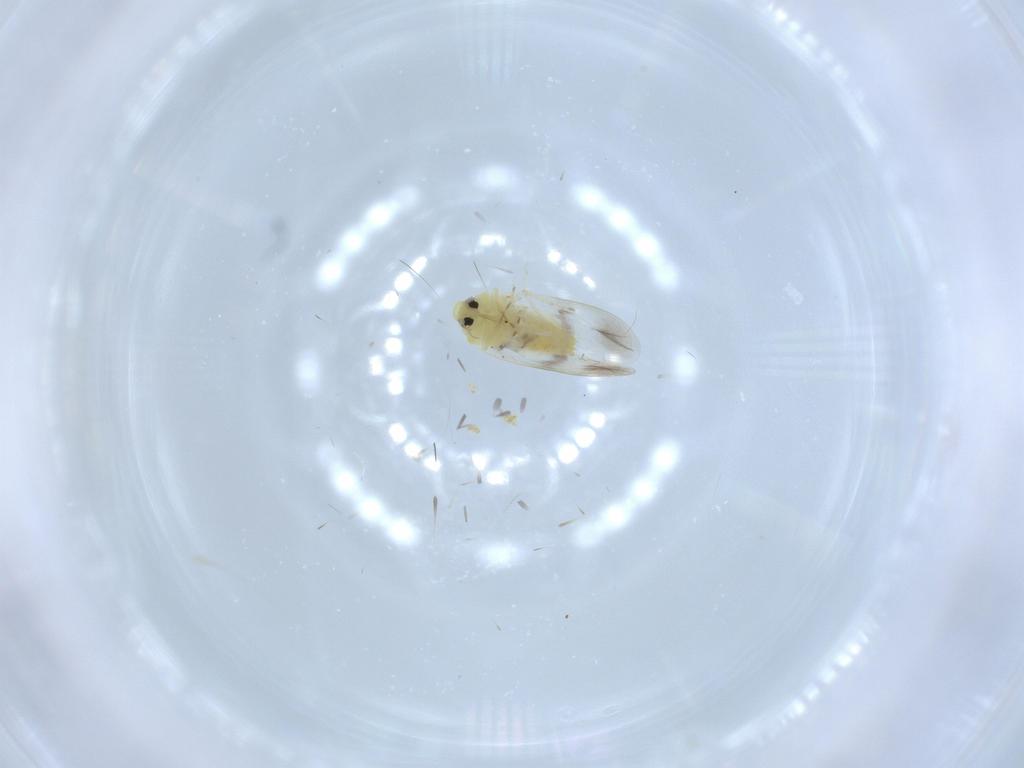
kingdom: Animalia
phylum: Arthropoda
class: Insecta
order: Hemiptera
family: Aleyrodidae
